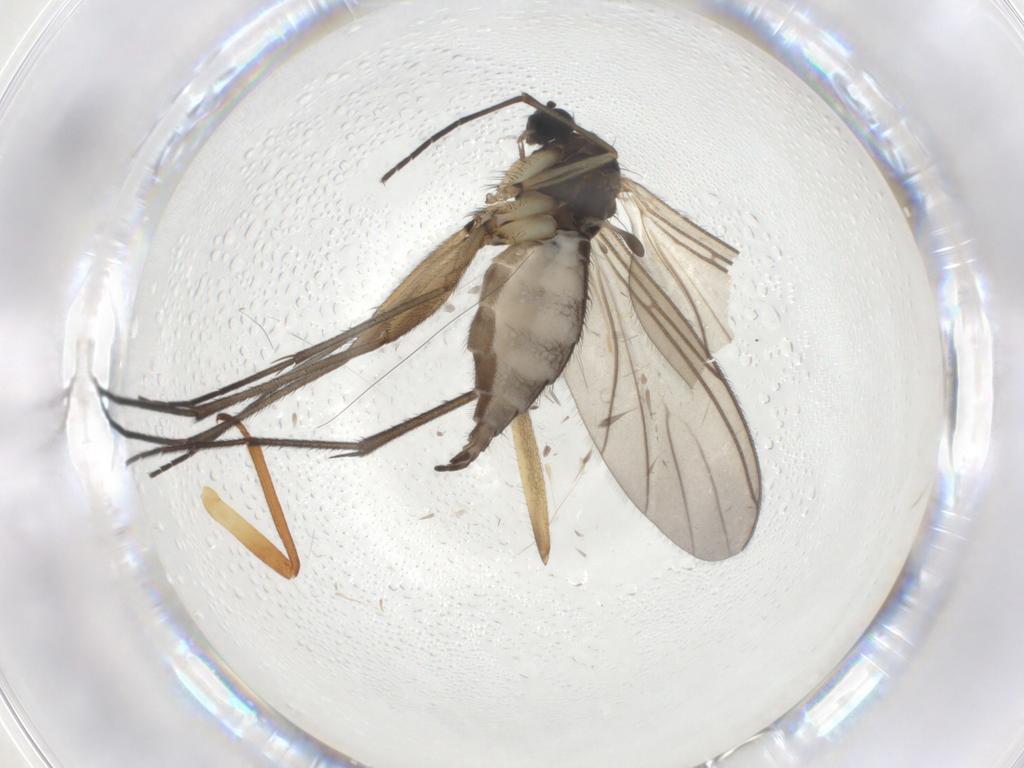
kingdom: Animalia
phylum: Arthropoda
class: Insecta
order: Diptera
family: Sciaridae
